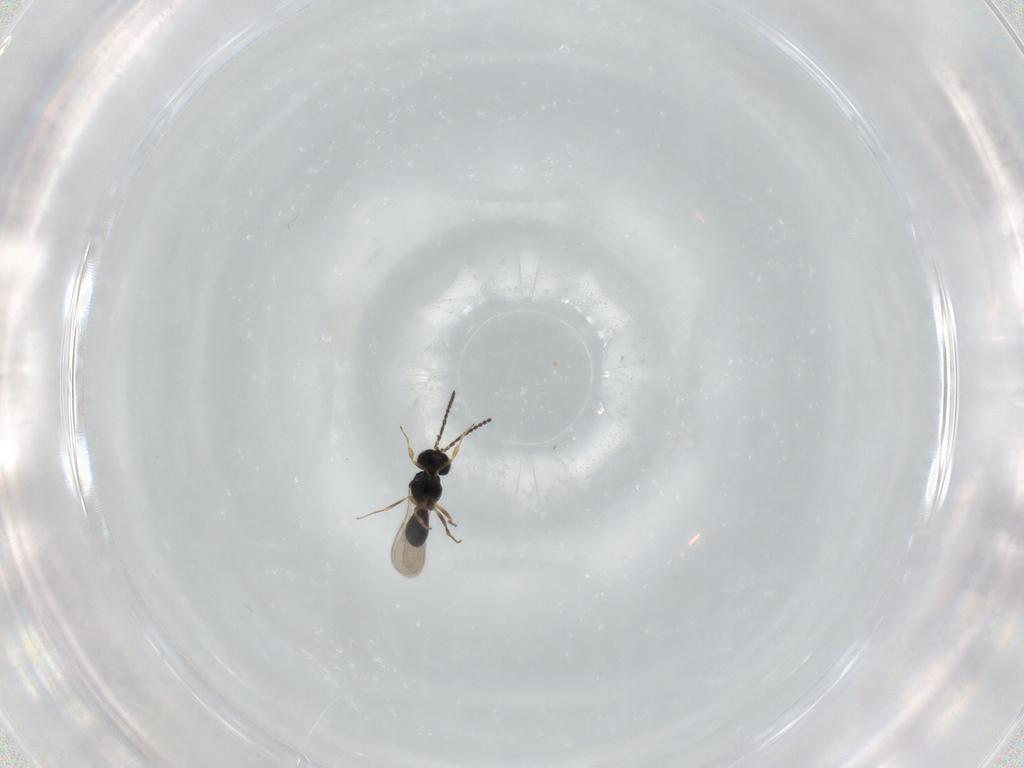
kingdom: Animalia
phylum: Arthropoda
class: Insecta
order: Hymenoptera
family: Scelionidae
